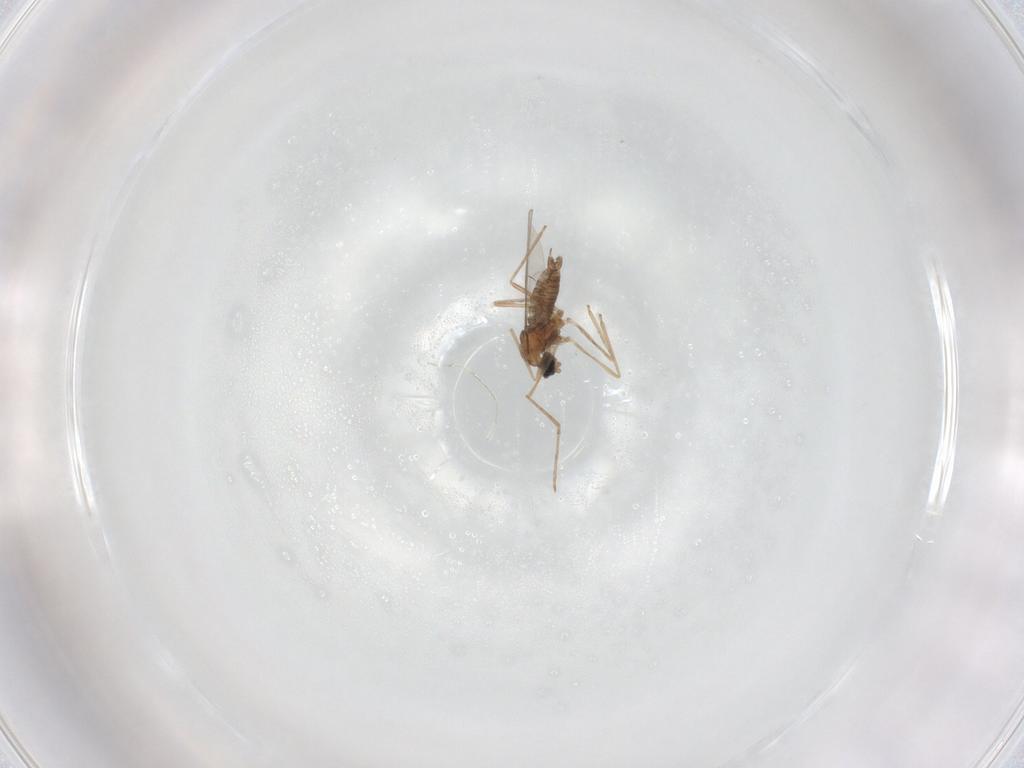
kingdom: Animalia
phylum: Arthropoda
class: Insecta
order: Diptera
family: Cecidomyiidae
